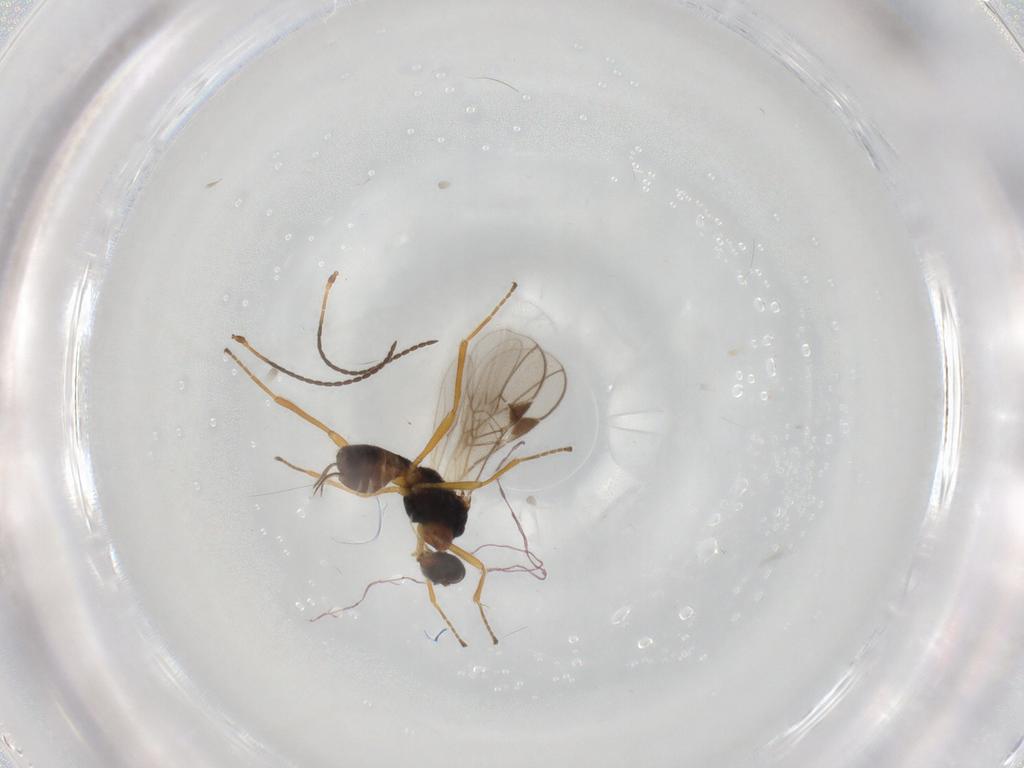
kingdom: Animalia
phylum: Arthropoda
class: Insecta
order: Hymenoptera
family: Braconidae
